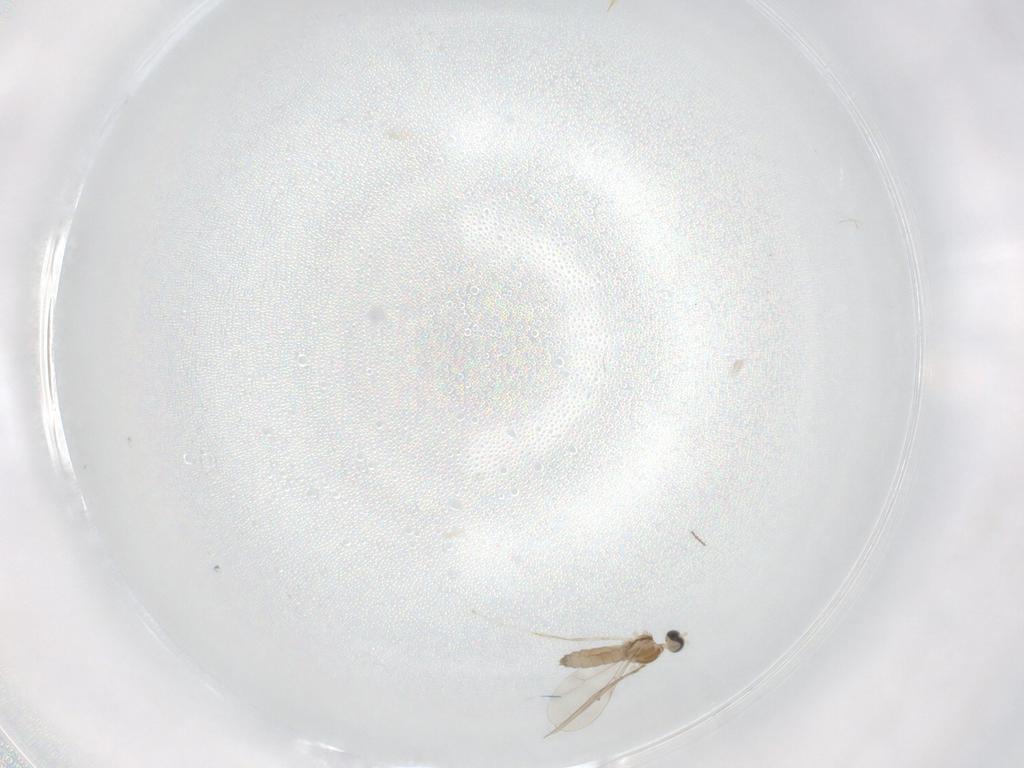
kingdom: Animalia
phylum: Arthropoda
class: Insecta
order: Diptera
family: Cecidomyiidae
